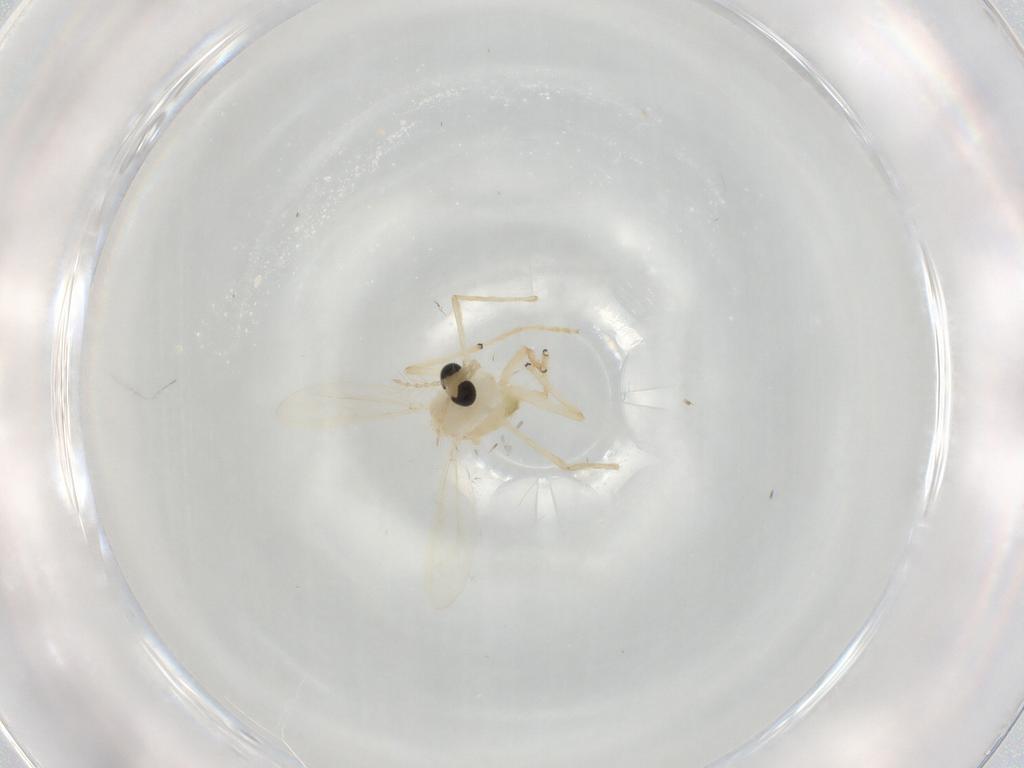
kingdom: Animalia
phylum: Arthropoda
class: Insecta
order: Diptera
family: Chironomidae
